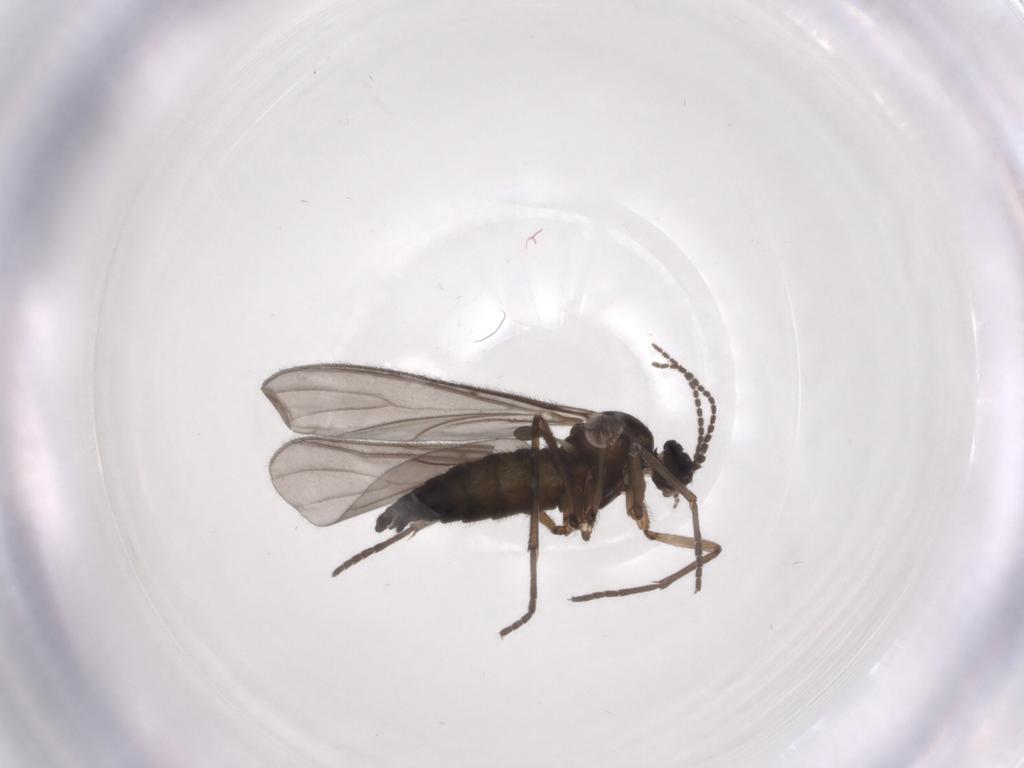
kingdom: Animalia
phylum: Arthropoda
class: Insecta
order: Diptera
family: Sciaridae
